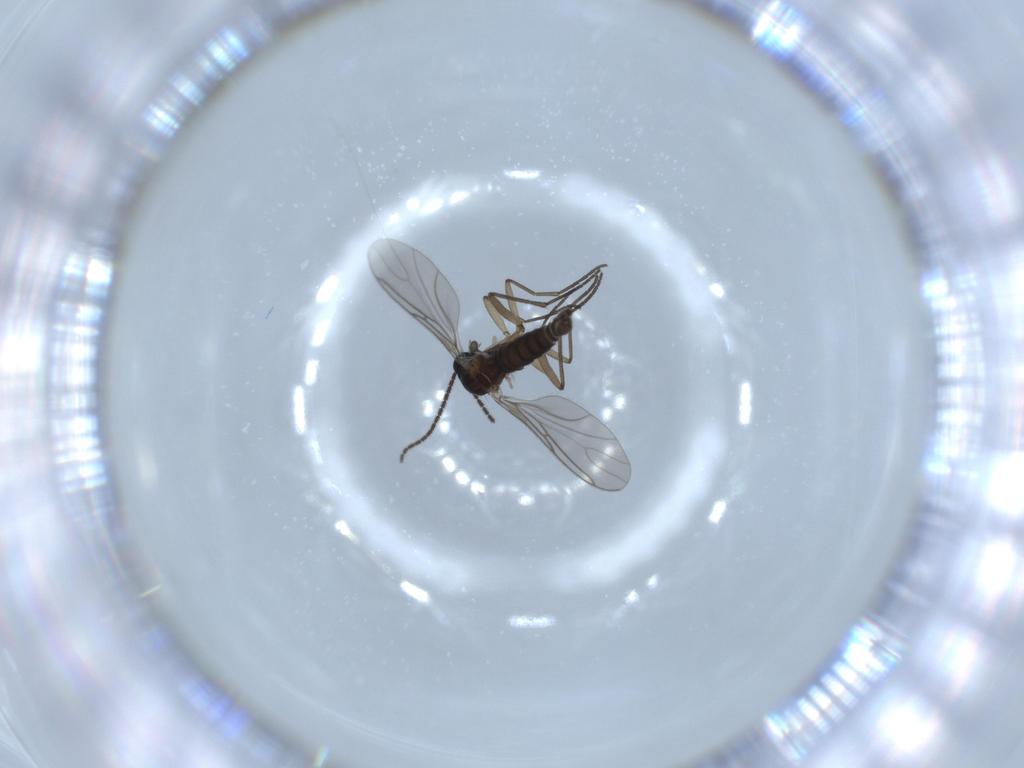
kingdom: Animalia
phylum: Arthropoda
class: Insecta
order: Diptera
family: Sciaridae
